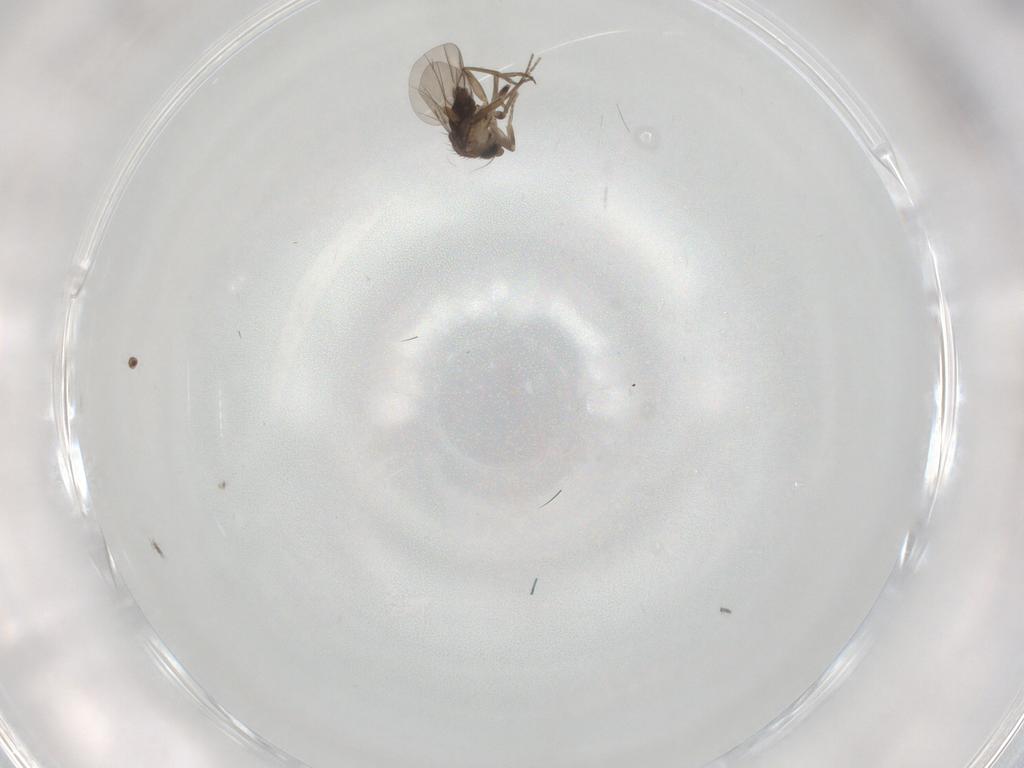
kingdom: Animalia
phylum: Arthropoda
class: Insecta
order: Diptera
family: Phoridae
